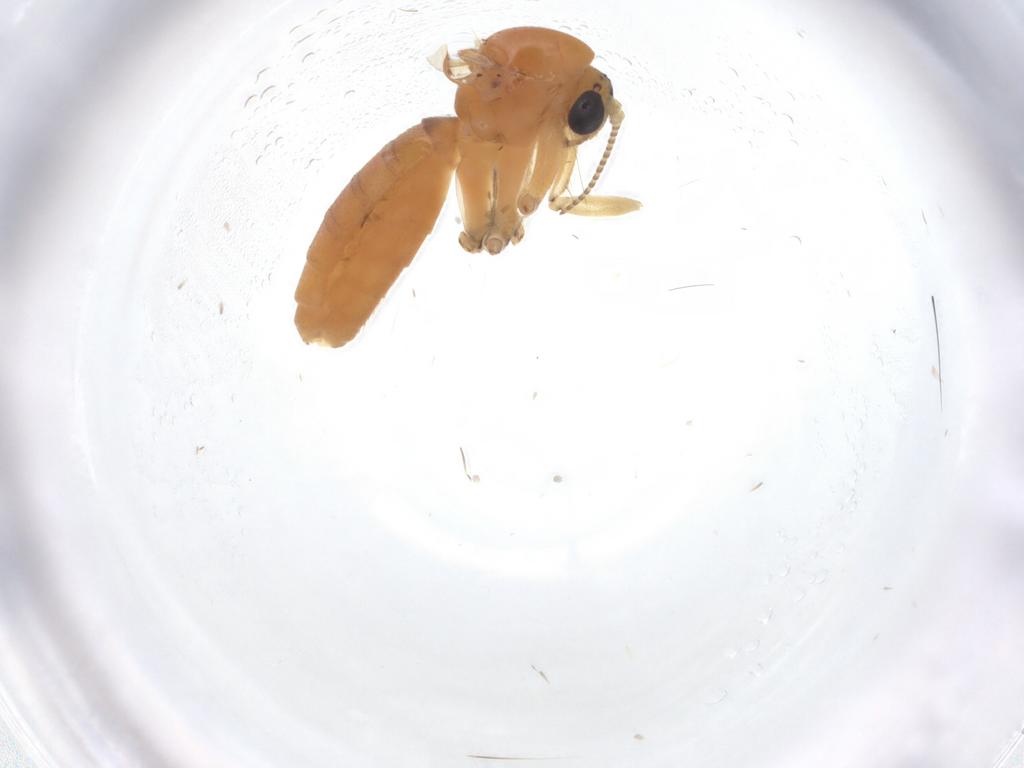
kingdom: Animalia
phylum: Arthropoda
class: Insecta
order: Diptera
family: Mycetophilidae
